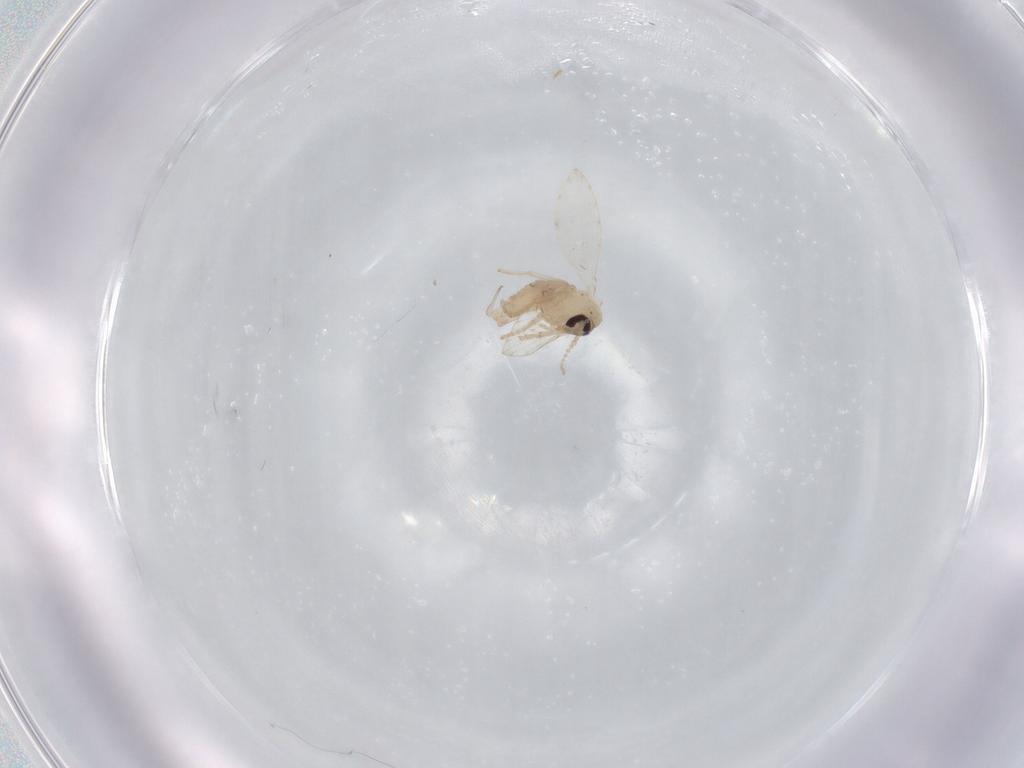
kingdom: Animalia
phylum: Arthropoda
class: Insecta
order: Diptera
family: Psychodidae
